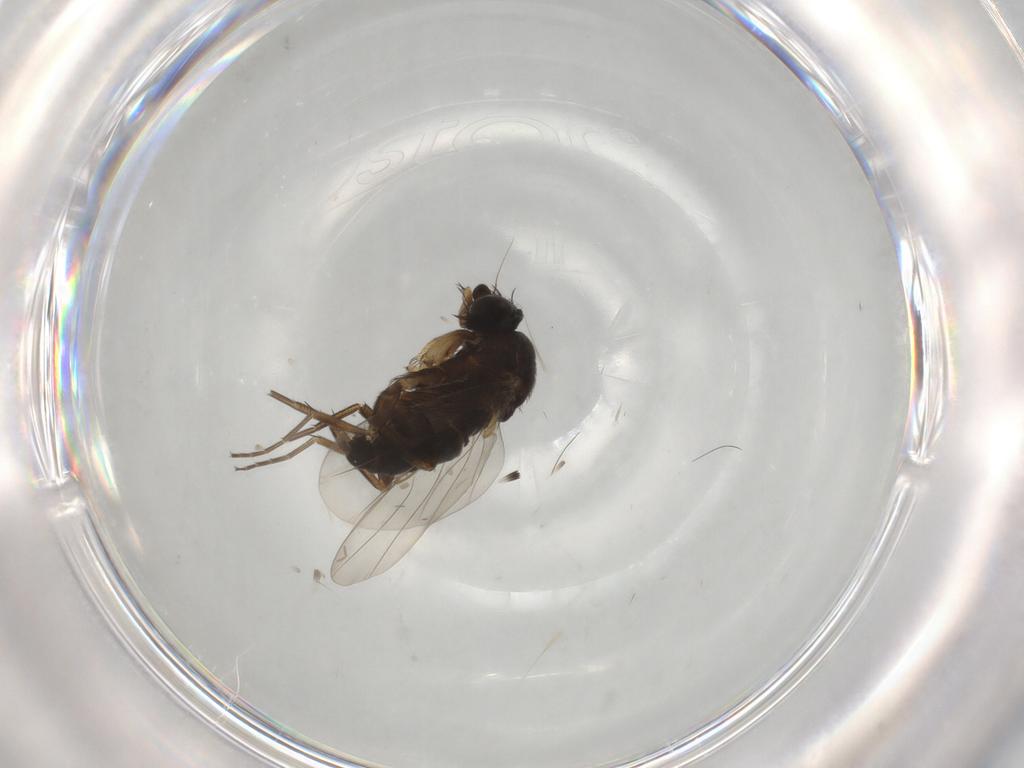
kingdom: Animalia
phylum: Arthropoda
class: Insecta
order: Diptera
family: Phoridae
